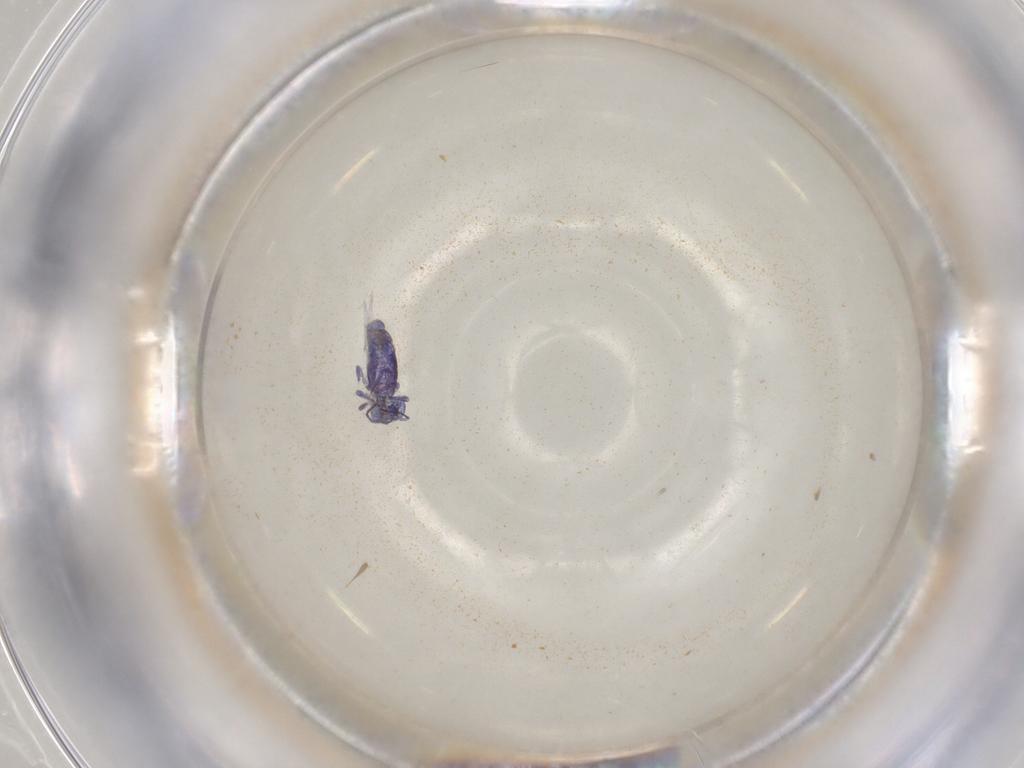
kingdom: Animalia
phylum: Arthropoda
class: Collembola
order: Symphypleona
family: Sminthuridae
